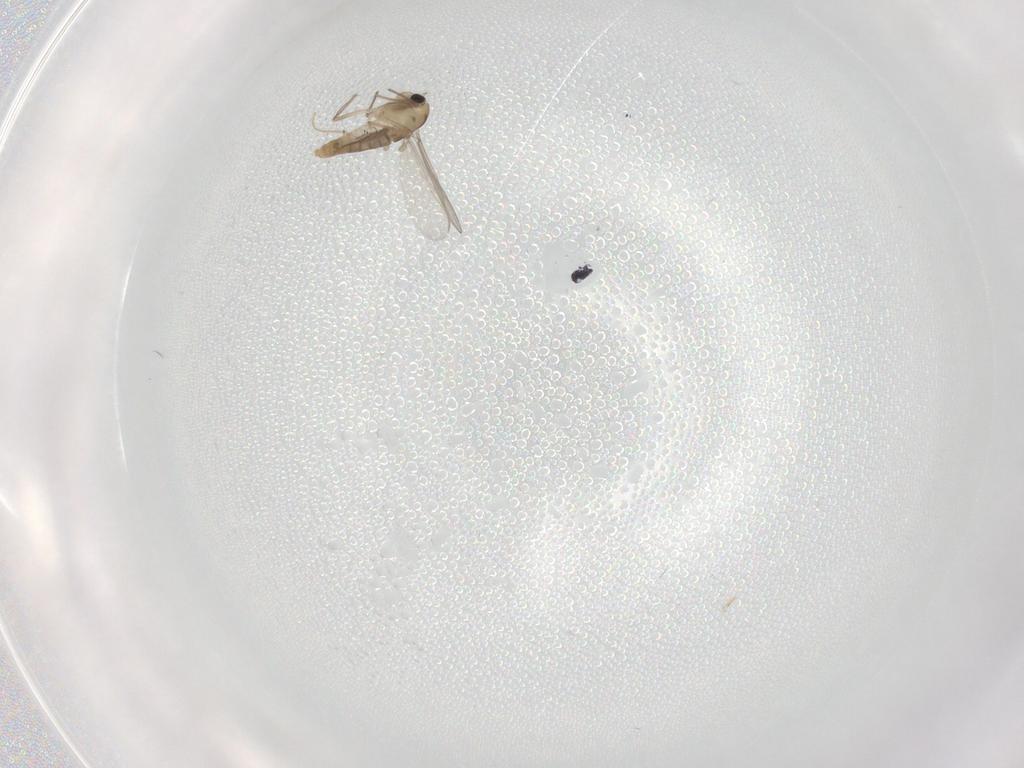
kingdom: Animalia
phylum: Arthropoda
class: Insecta
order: Diptera
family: Chironomidae
